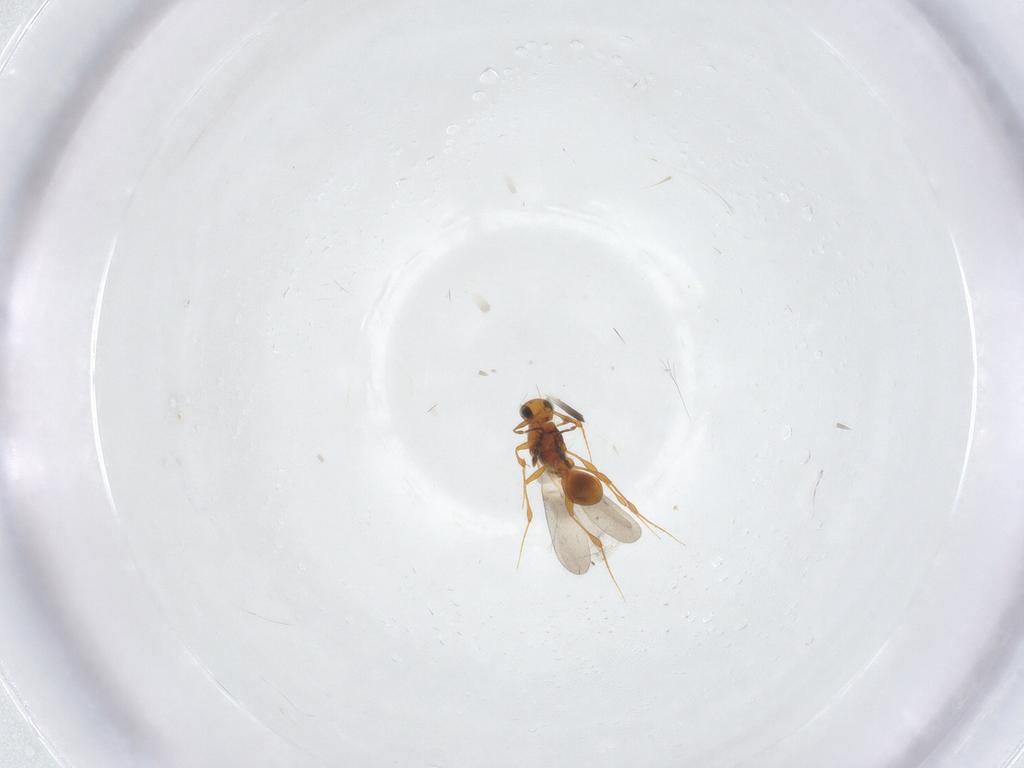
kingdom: Animalia
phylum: Arthropoda
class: Insecta
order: Hymenoptera
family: Platygastridae
